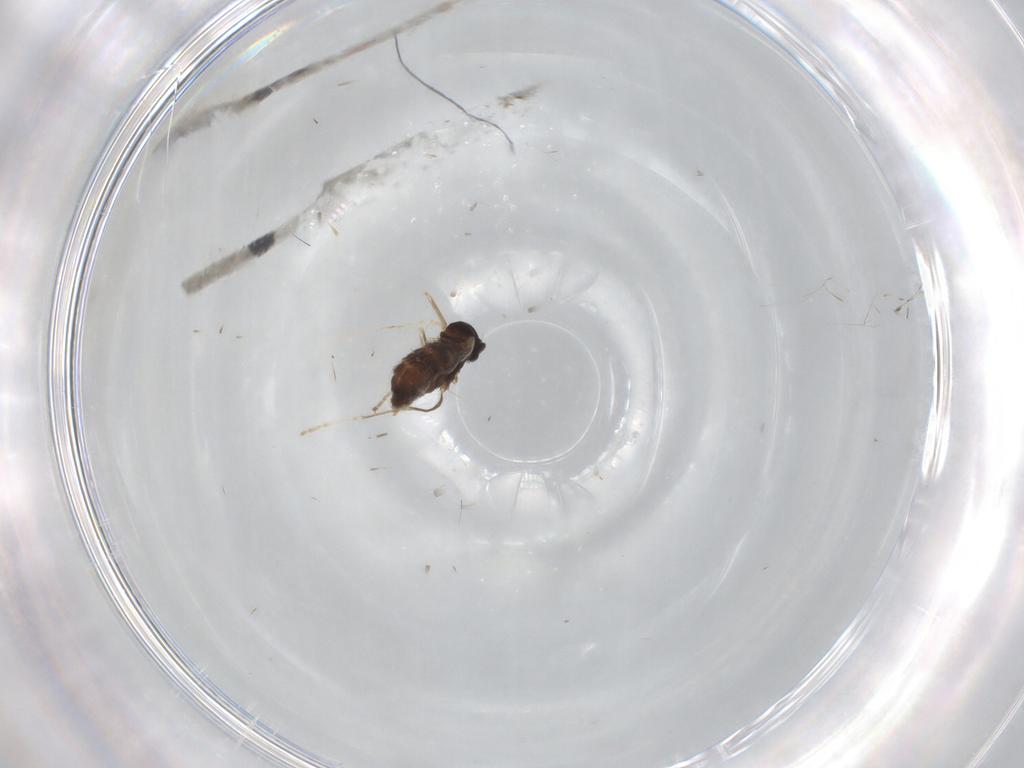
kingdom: Animalia
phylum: Arthropoda
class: Insecta
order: Diptera
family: Cecidomyiidae
